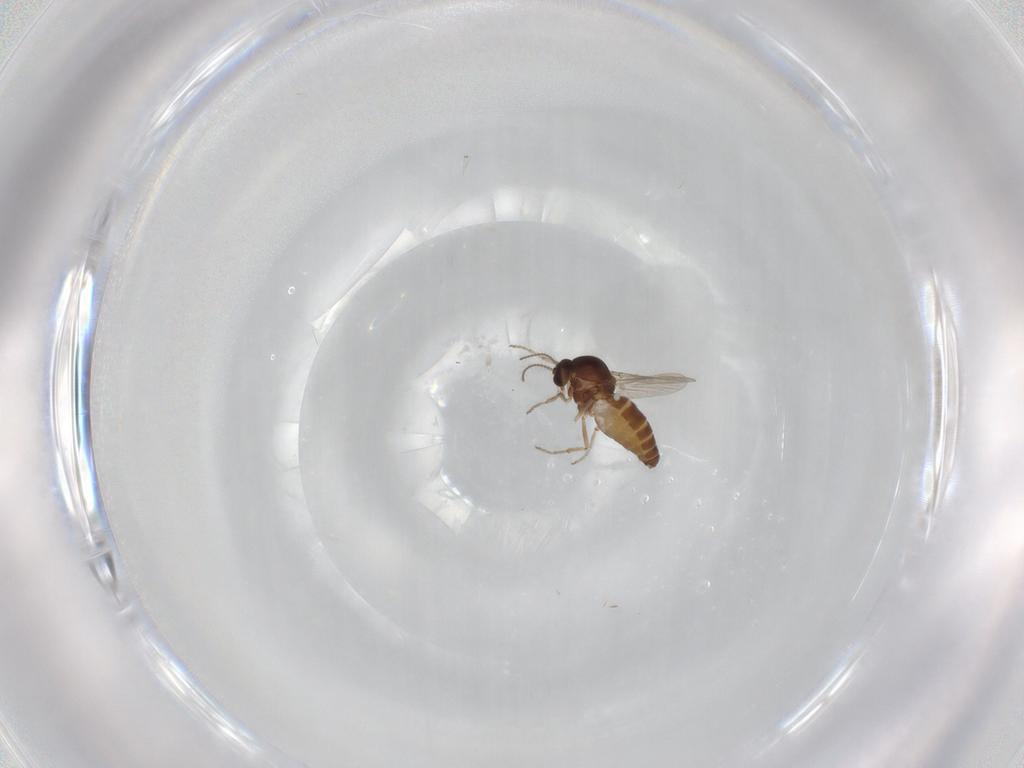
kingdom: Animalia
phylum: Arthropoda
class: Insecta
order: Diptera
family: Ceratopogonidae
